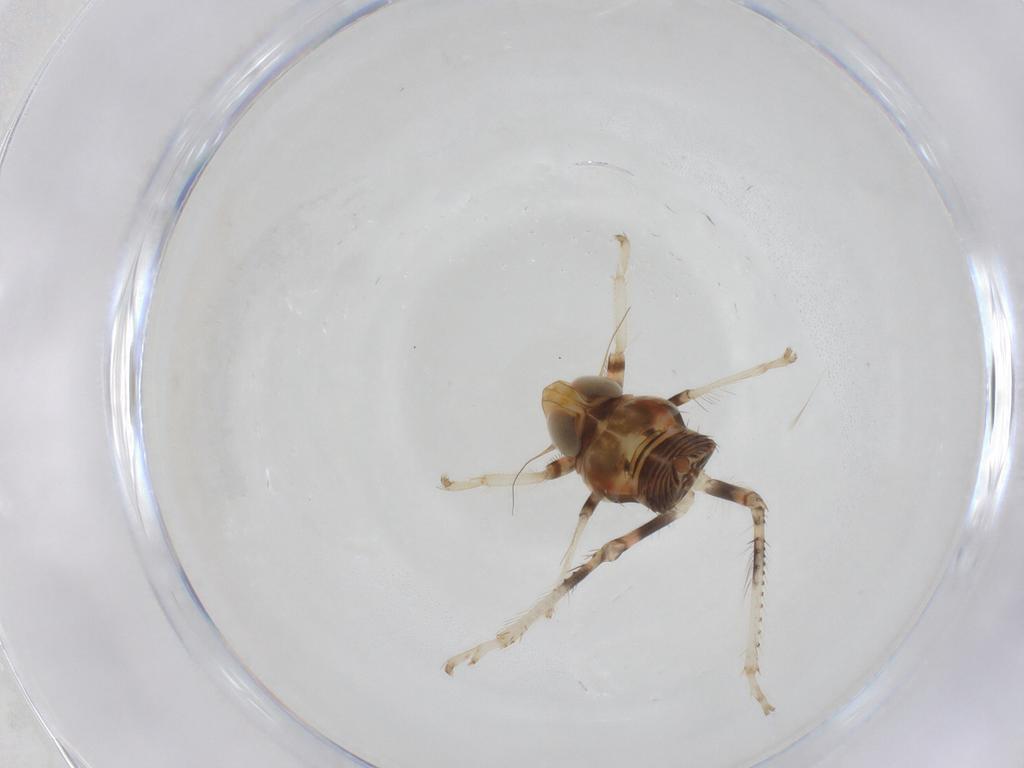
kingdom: Animalia
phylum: Arthropoda
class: Insecta
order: Hemiptera
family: Cicadellidae
